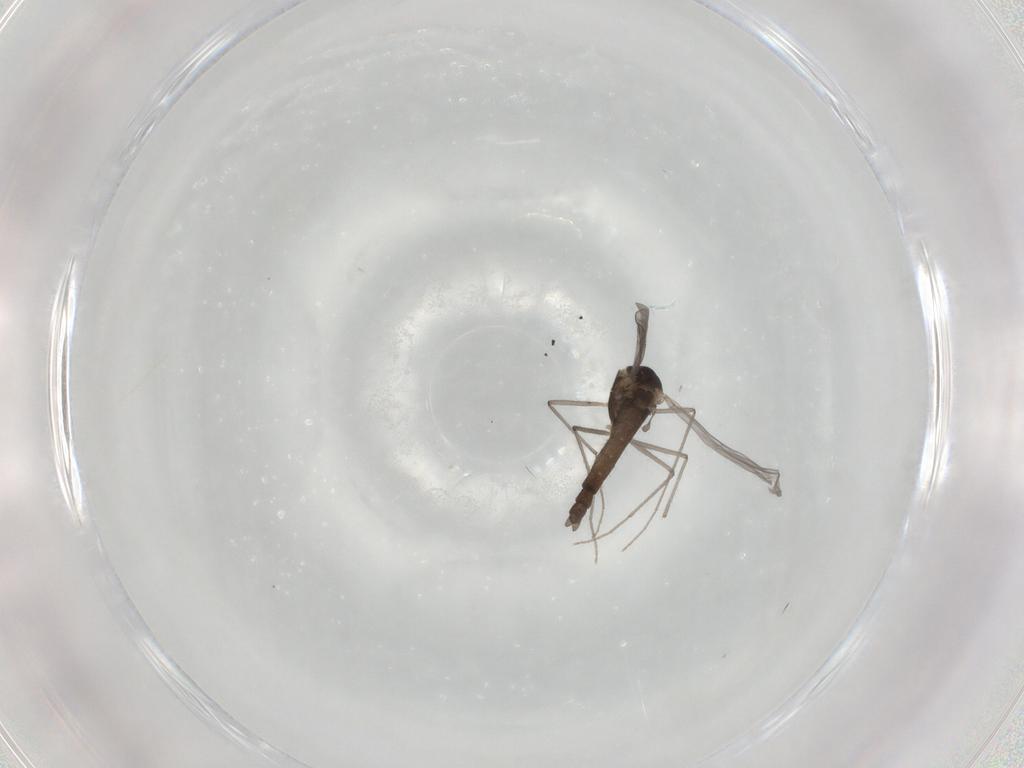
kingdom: Animalia
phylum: Arthropoda
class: Insecta
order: Diptera
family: Chironomidae
